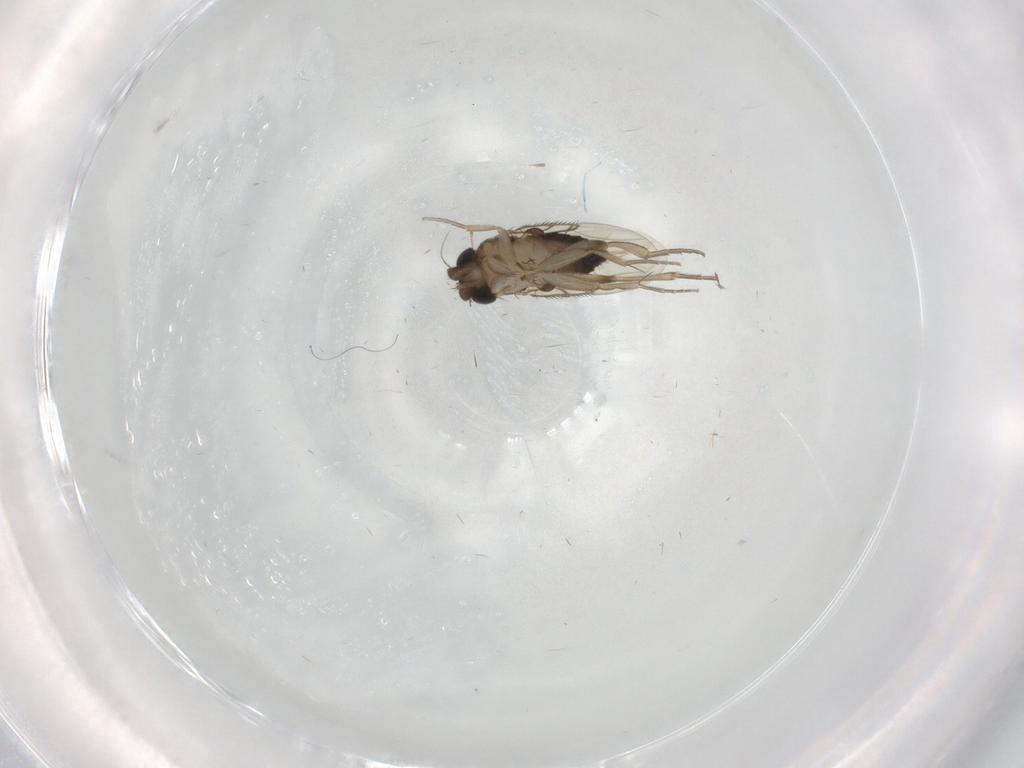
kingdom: Animalia
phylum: Arthropoda
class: Insecta
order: Diptera
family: Phoridae
